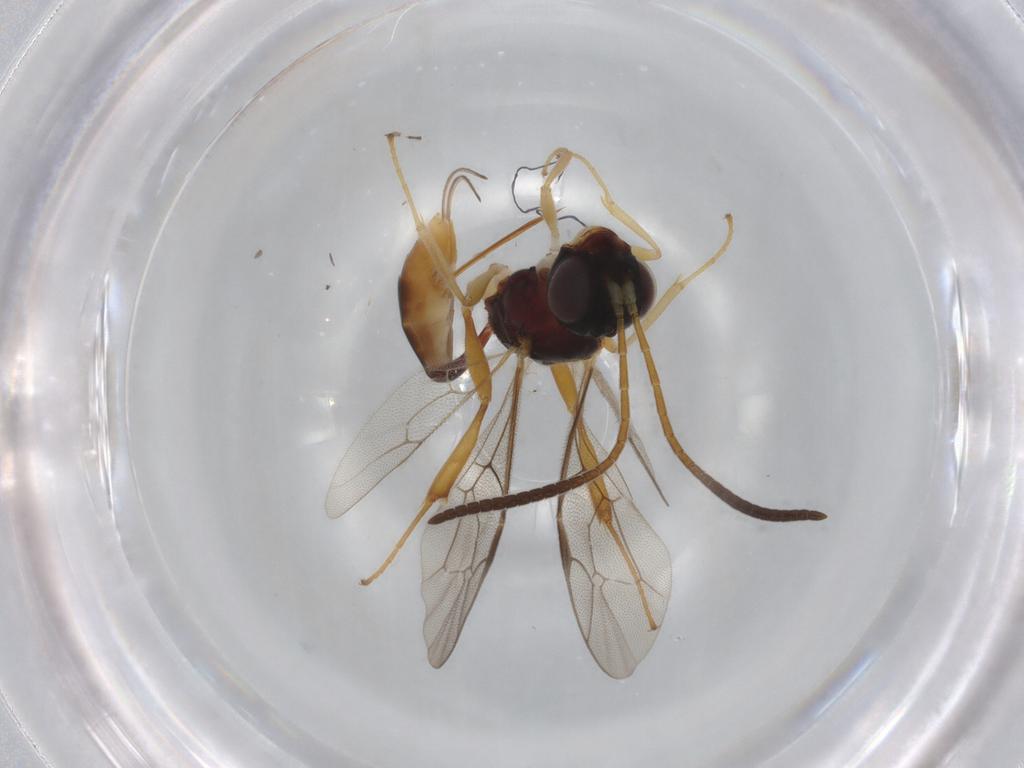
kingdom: Animalia
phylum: Arthropoda
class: Insecta
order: Hymenoptera
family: Ichneumonidae
